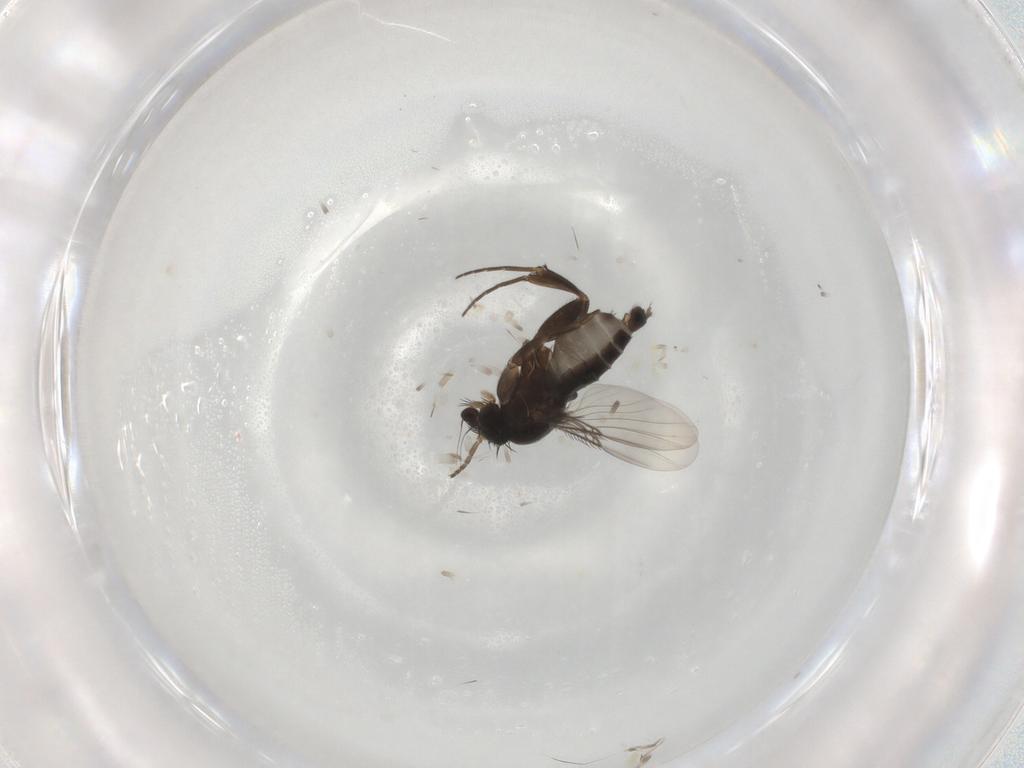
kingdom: Animalia
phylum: Arthropoda
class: Insecta
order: Diptera
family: Phoridae
